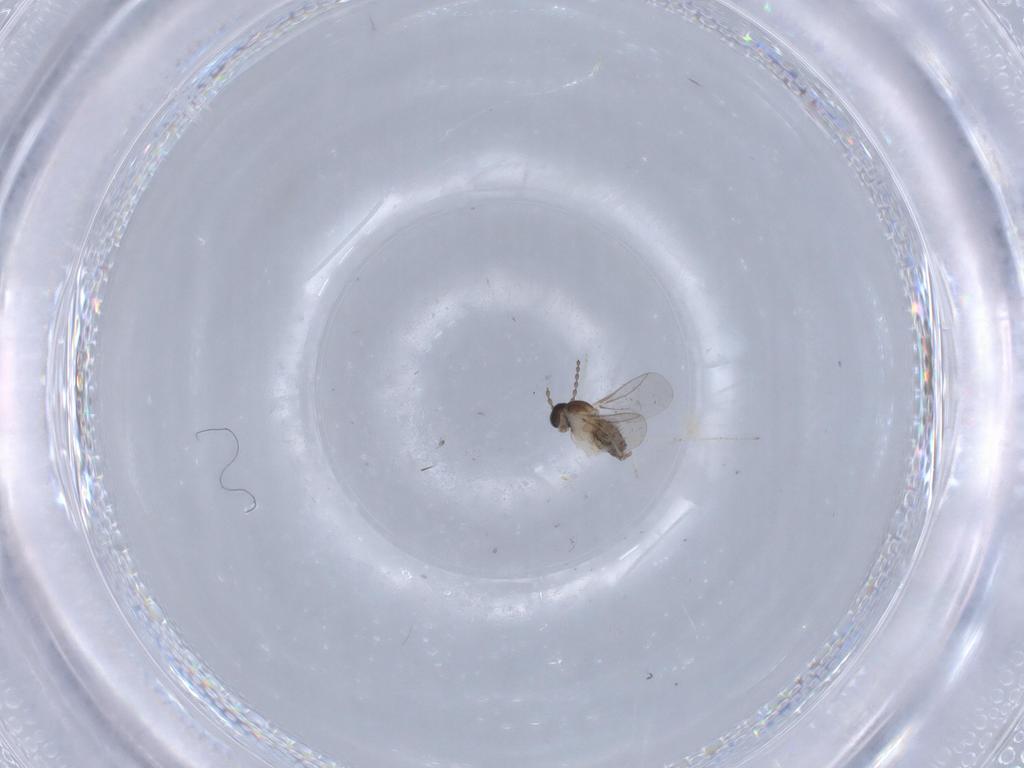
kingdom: Animalia
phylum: Arthropoda
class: Insecta
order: Diptera
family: Cecidomyiidae
